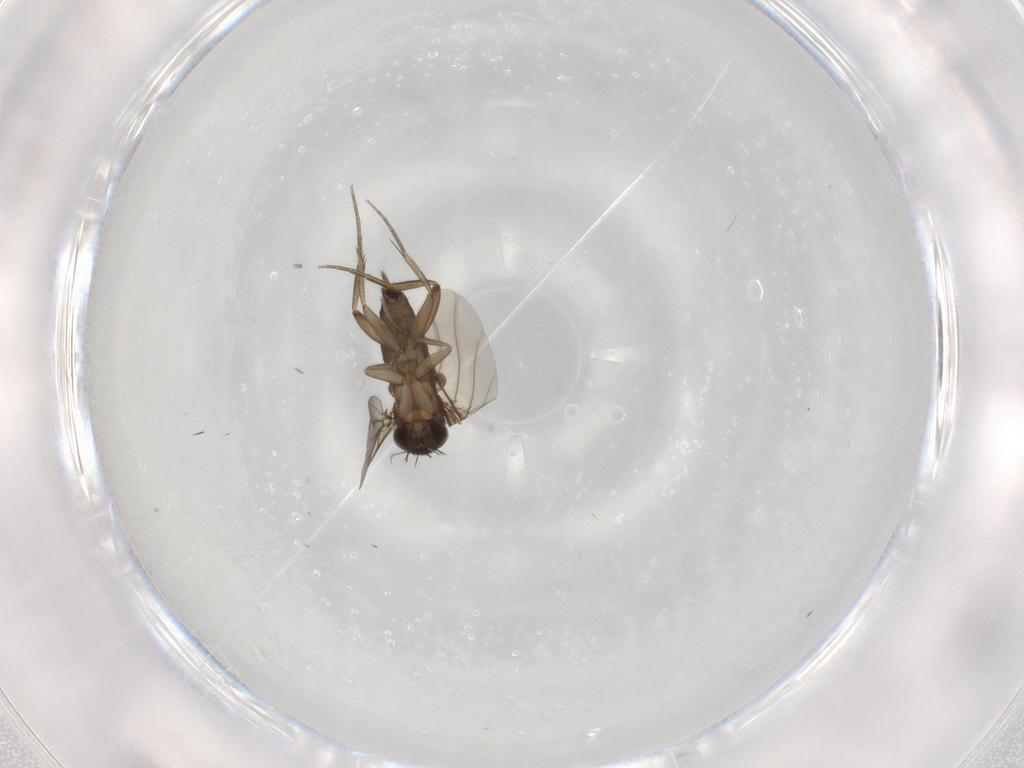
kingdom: Animalia
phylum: Arthropoda
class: Insecta
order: Diptera
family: Phoridae
